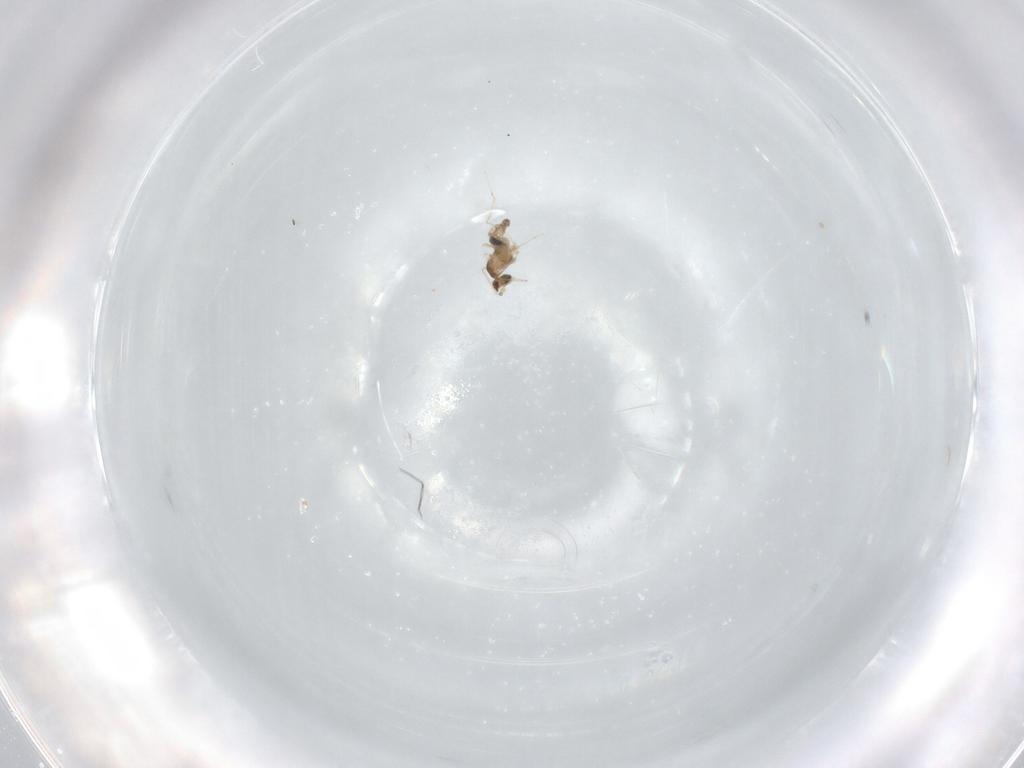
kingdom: Animalia
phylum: Arthropoda
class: Insecta
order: Diptera
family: Cecidomyiidae
